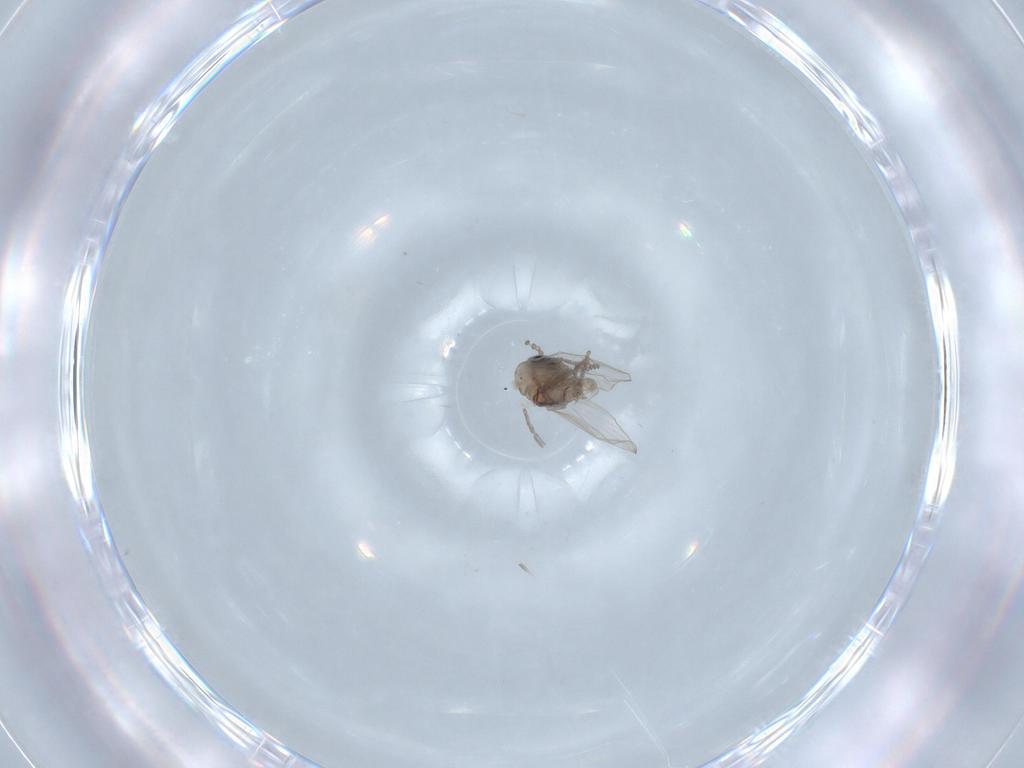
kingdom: Animalia
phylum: Arthropoda
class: Insecta
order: Diptera
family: Psychodidae
